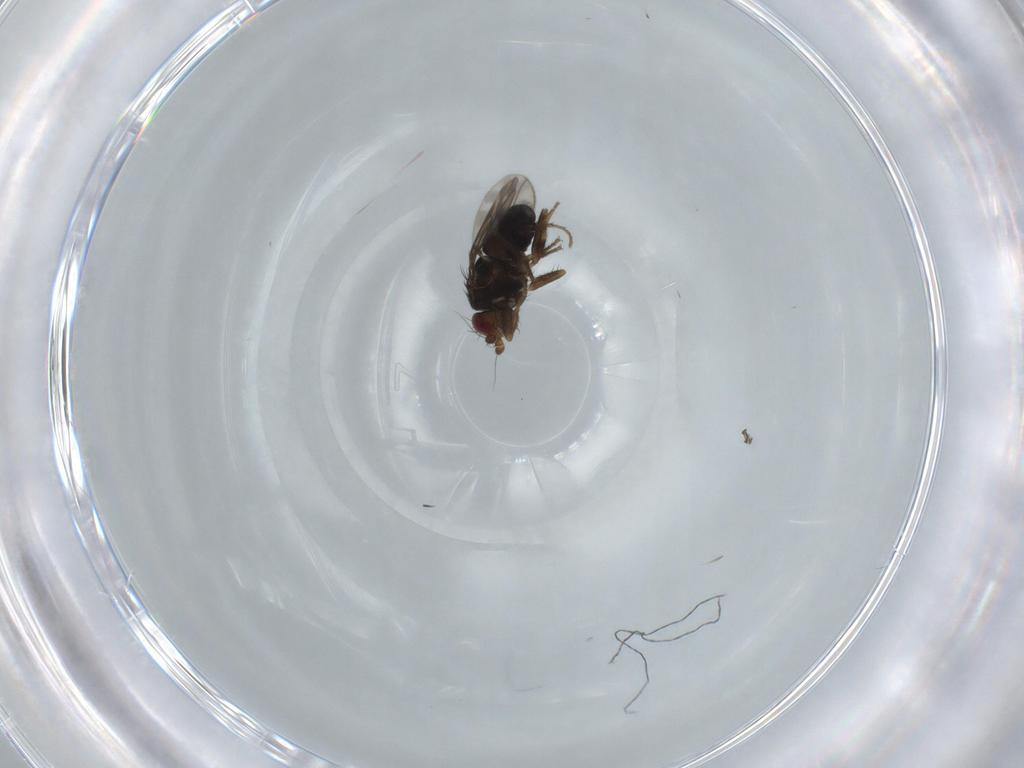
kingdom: Animalia
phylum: Arthropoda
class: Insecta
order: Diptera
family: Sphaeroceridae
